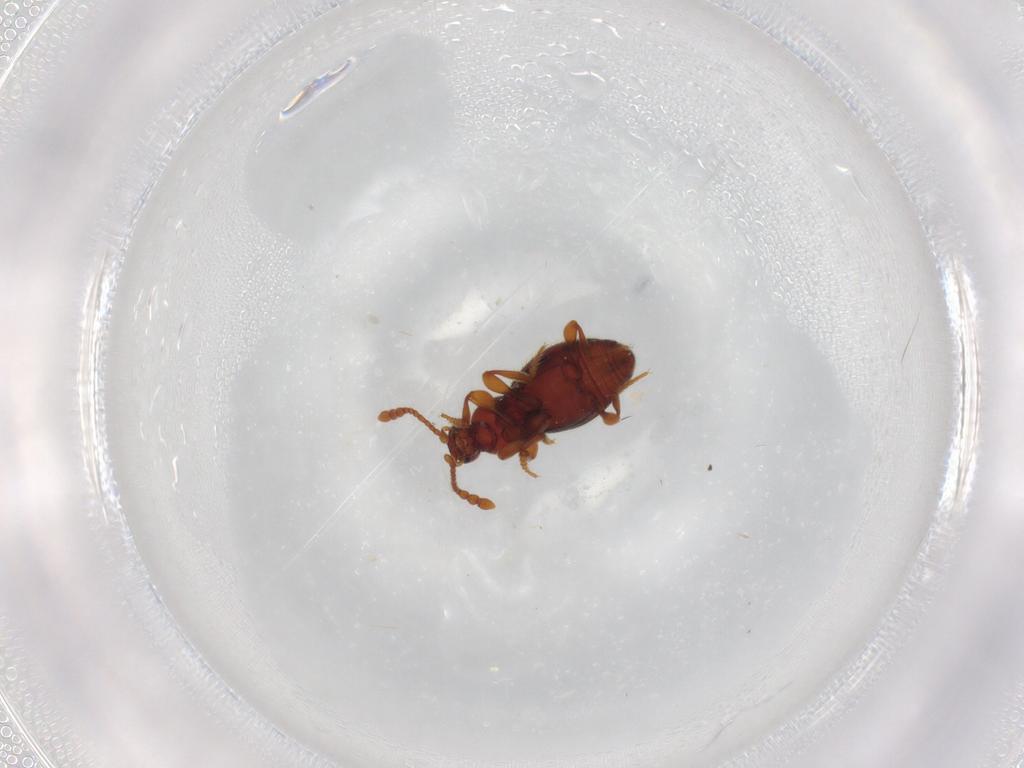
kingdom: Animalia
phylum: Arthropoda
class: Insecta
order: Coleoptera
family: Staphylinidae
